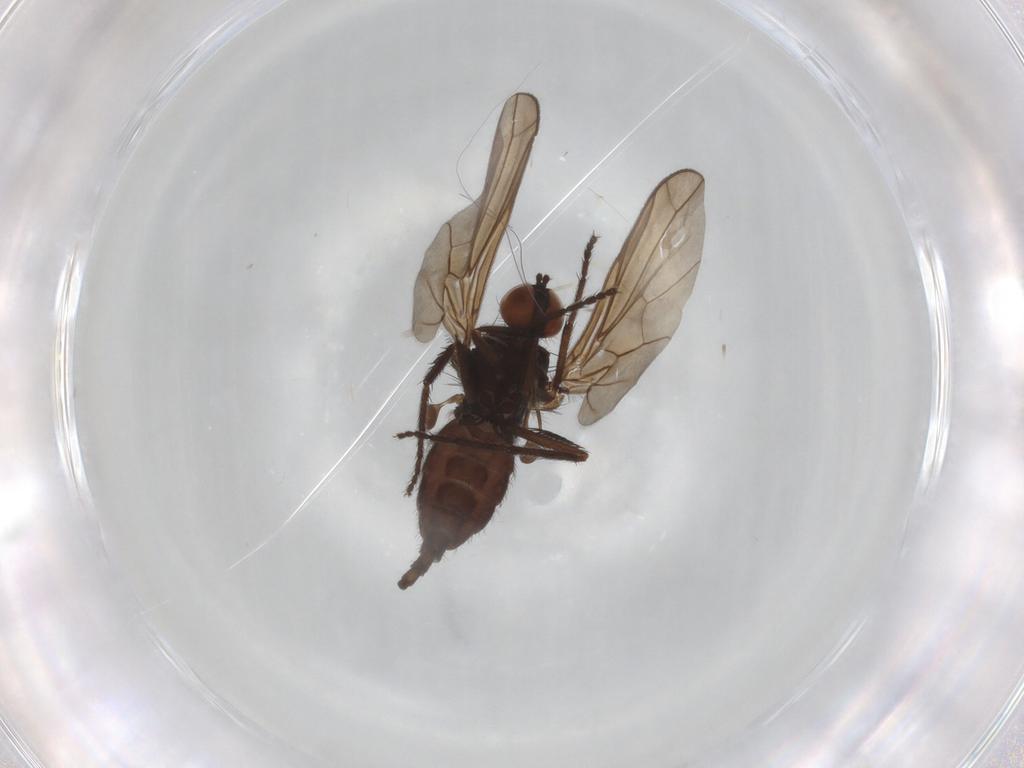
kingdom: Animalia
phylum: Arthropoda
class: Insecta
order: Diptera
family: Empididae
